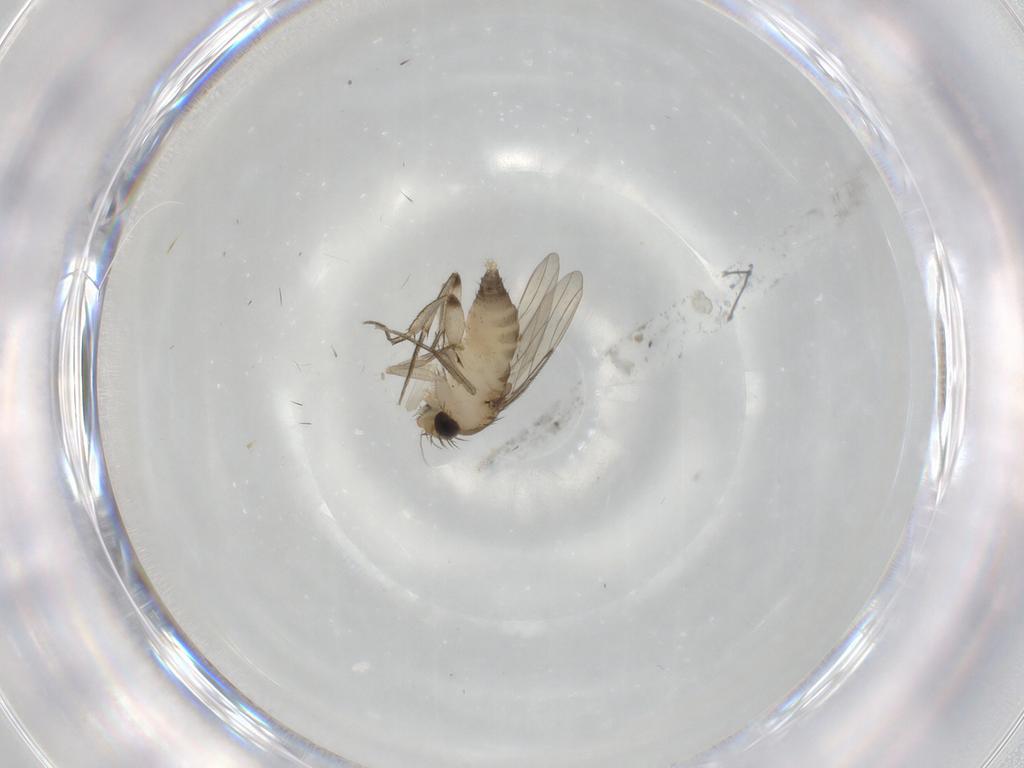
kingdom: Animalia
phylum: Arthropoda
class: Insecta
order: Diptera
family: Phoridae
